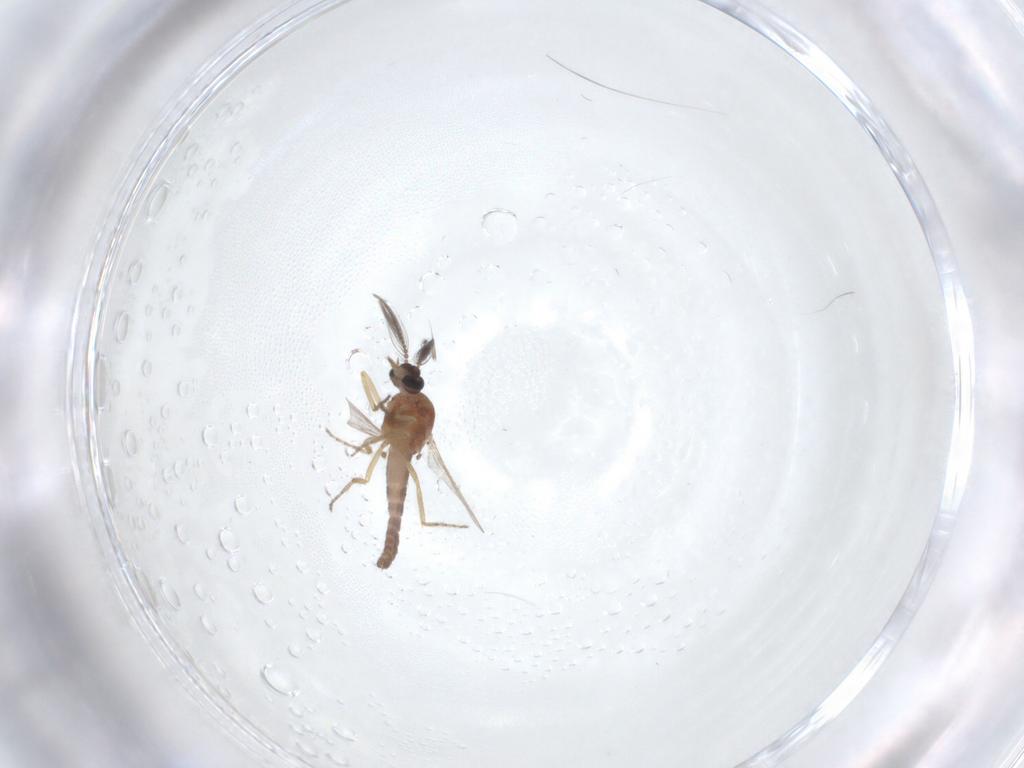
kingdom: Animalia
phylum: Arthropoda
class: Insecta
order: Diptera
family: Ceratopogonidae
